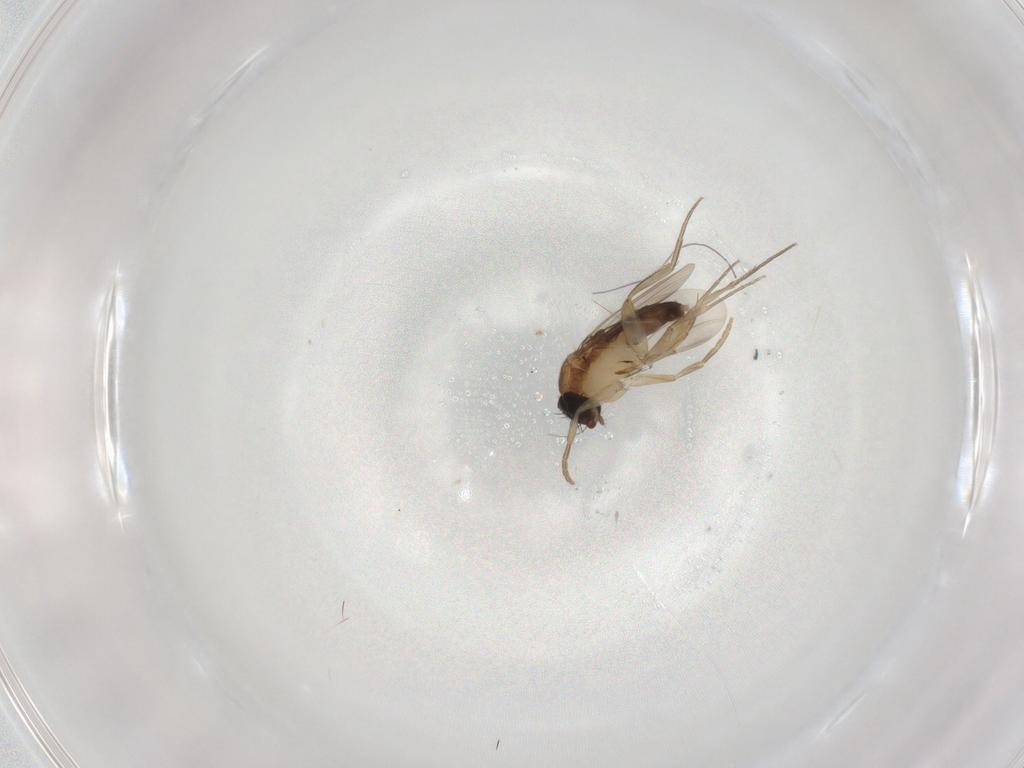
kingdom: Animalia
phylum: Arthropoda
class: Insecta
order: Diptera
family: Phoridae
